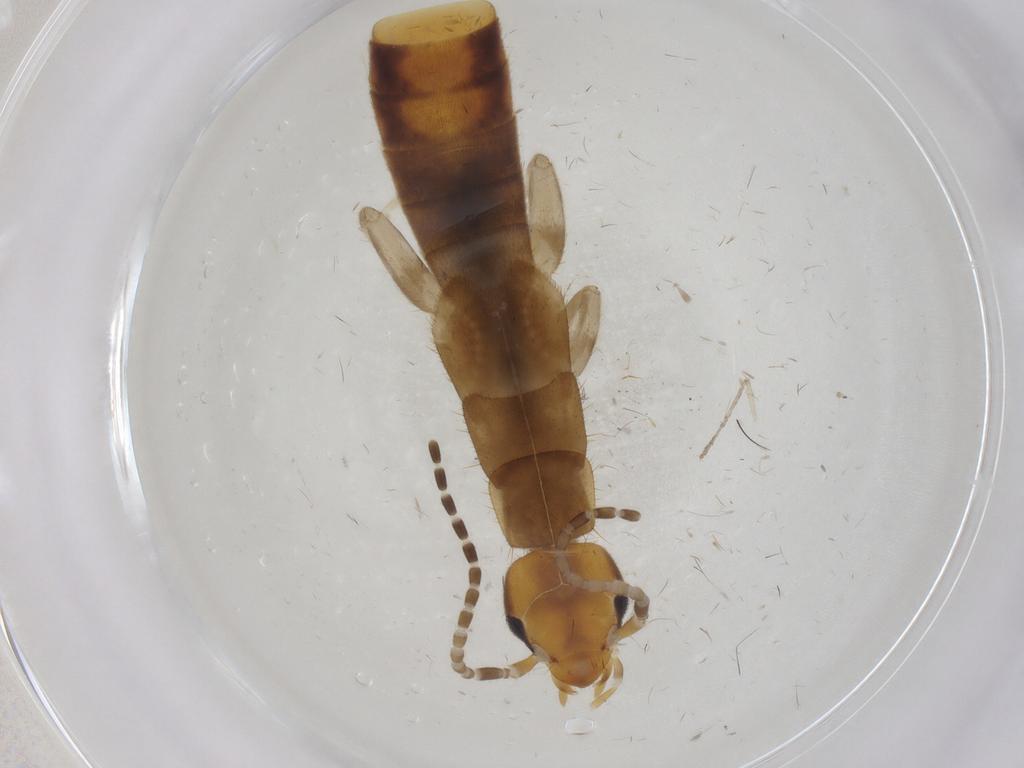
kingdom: Animalia
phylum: Arthropoda
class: Insecta
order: Dermaptera
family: Forficulidae
